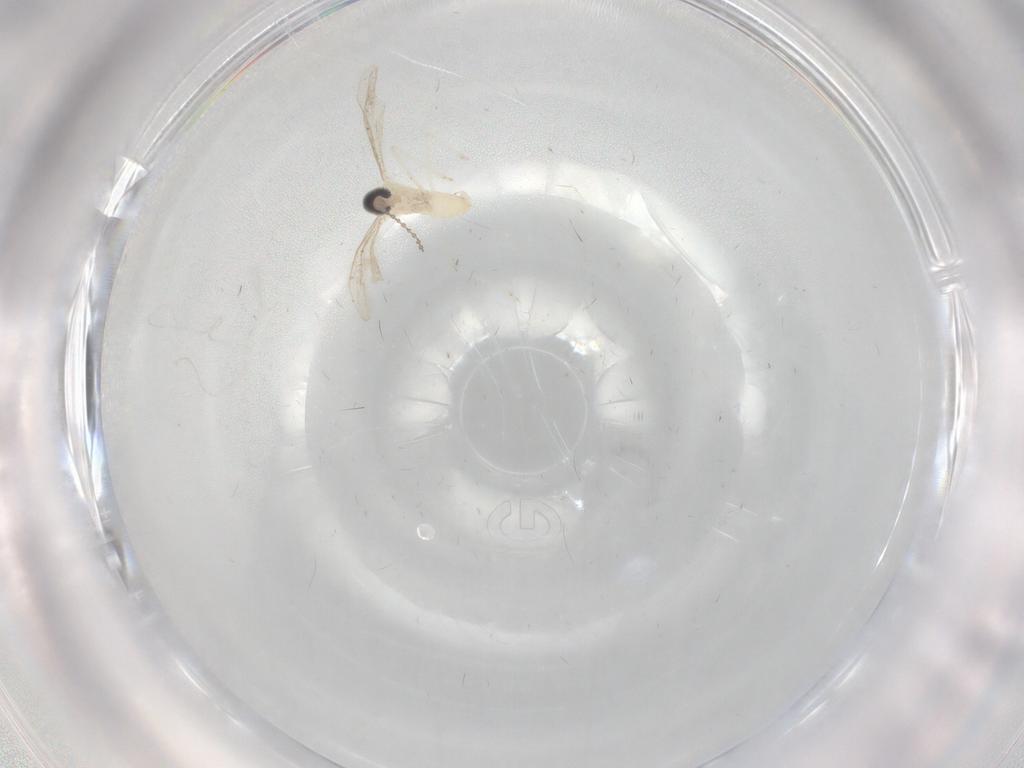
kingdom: Animalia
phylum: Arthropoda
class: Insecta
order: Diptera
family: Cecidomyiidae
